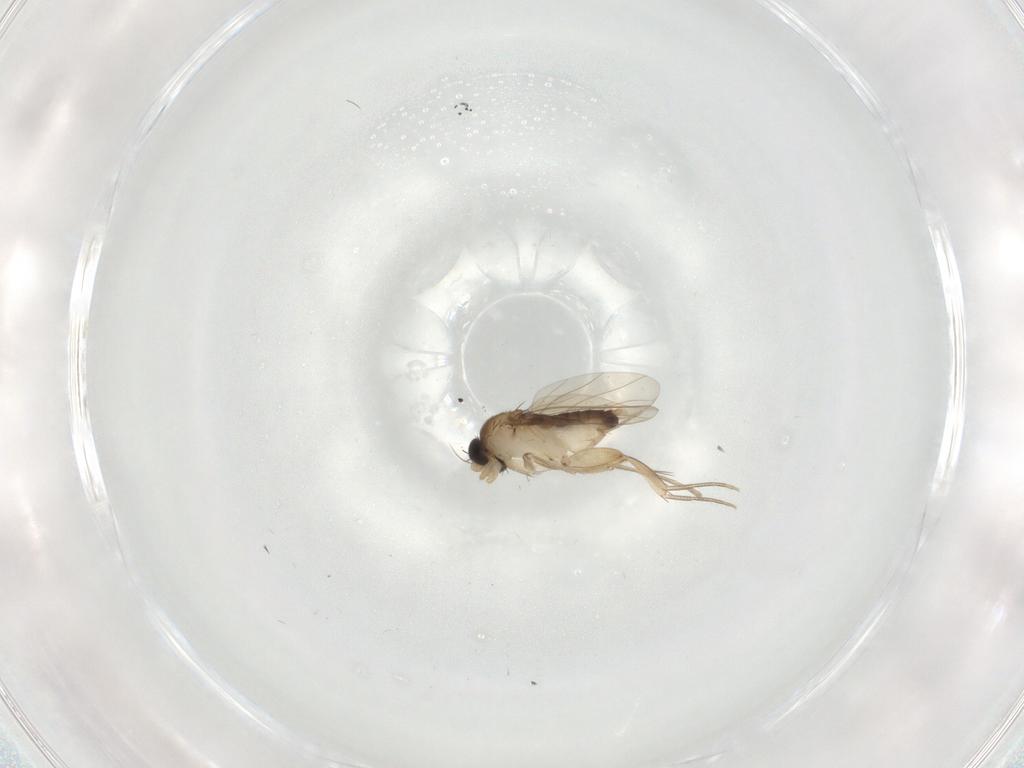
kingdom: Animalia
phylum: Arthropoda
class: Insecta
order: Diptera
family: Phoridae
